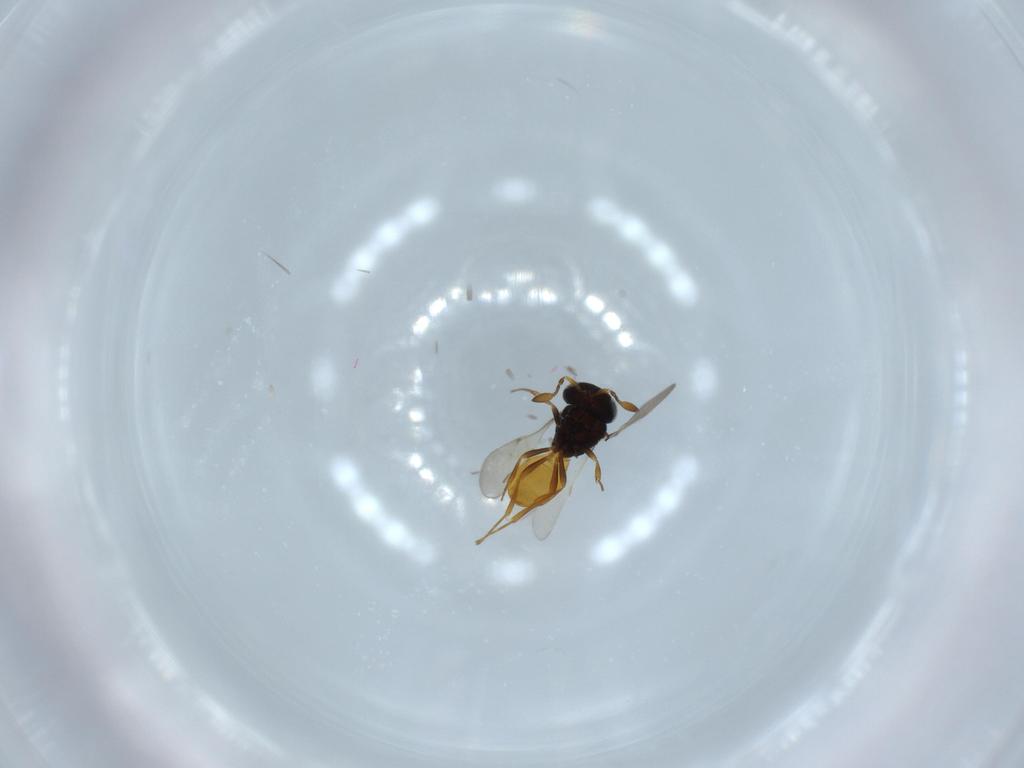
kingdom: Animalia
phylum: Arthropoda
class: Insecta
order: Hymenoptera
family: Scelionidae
